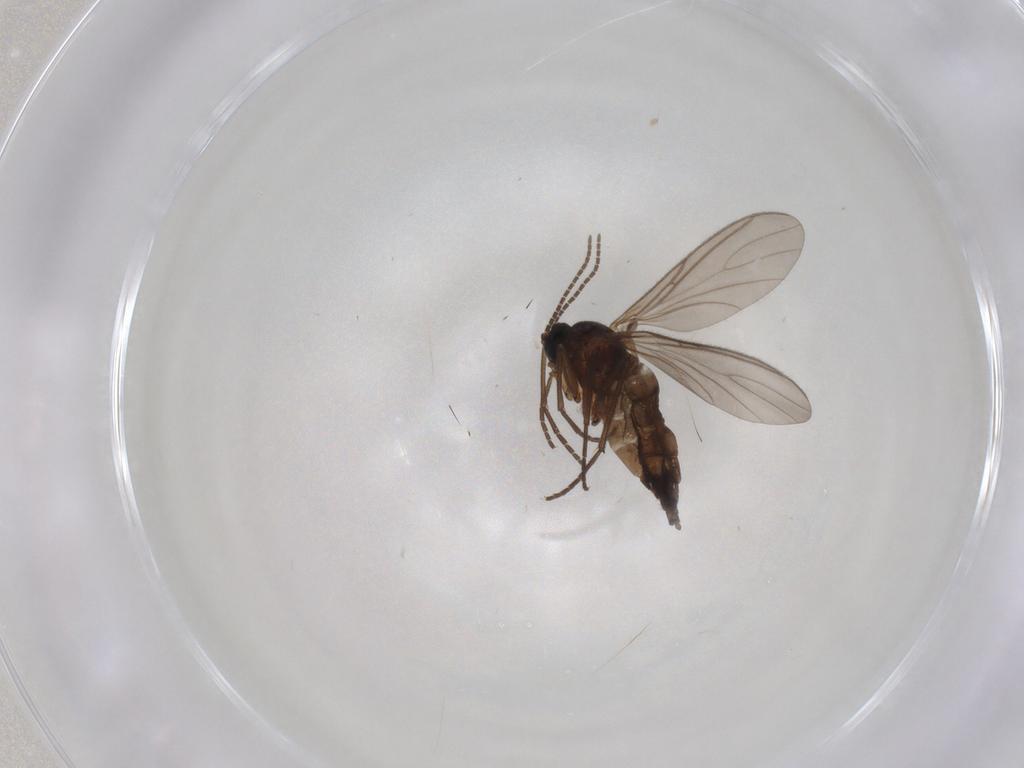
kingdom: Animalia
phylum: Arthropoda
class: Insecta
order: Diptera
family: Sciaridae
